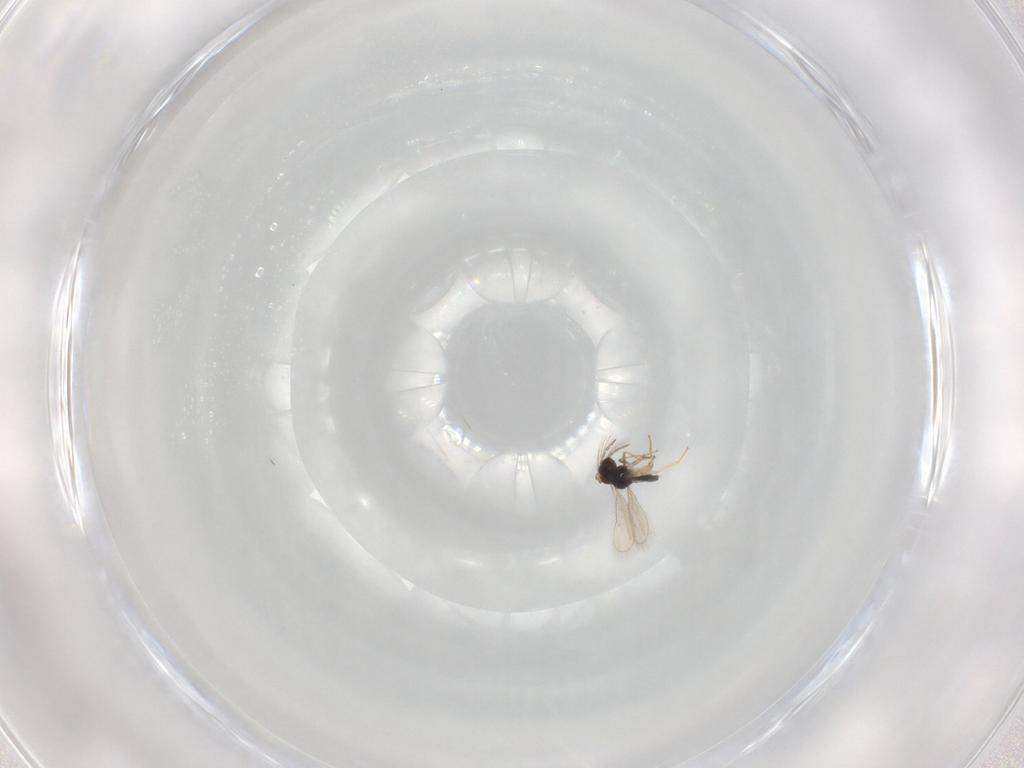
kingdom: Animalia
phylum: Arthropoda
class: Insecta
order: Hymenoptera
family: Eulophidae
